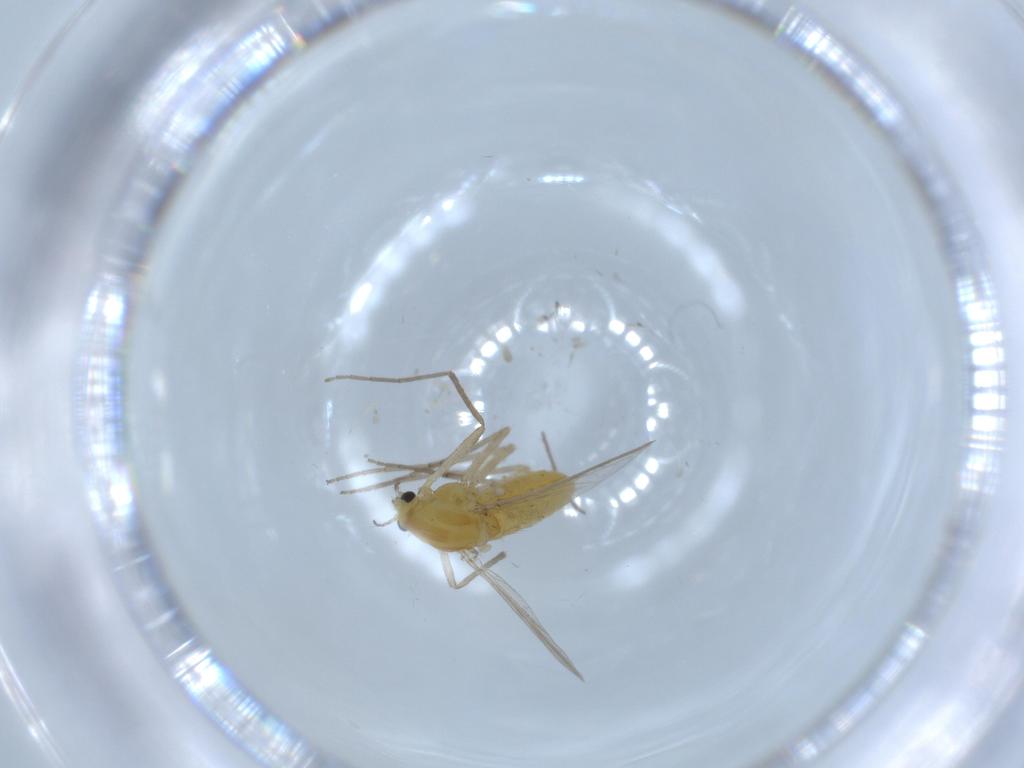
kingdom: Animalia
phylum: Arthropoda
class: Insecta
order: Diptera
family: Chironomidae
